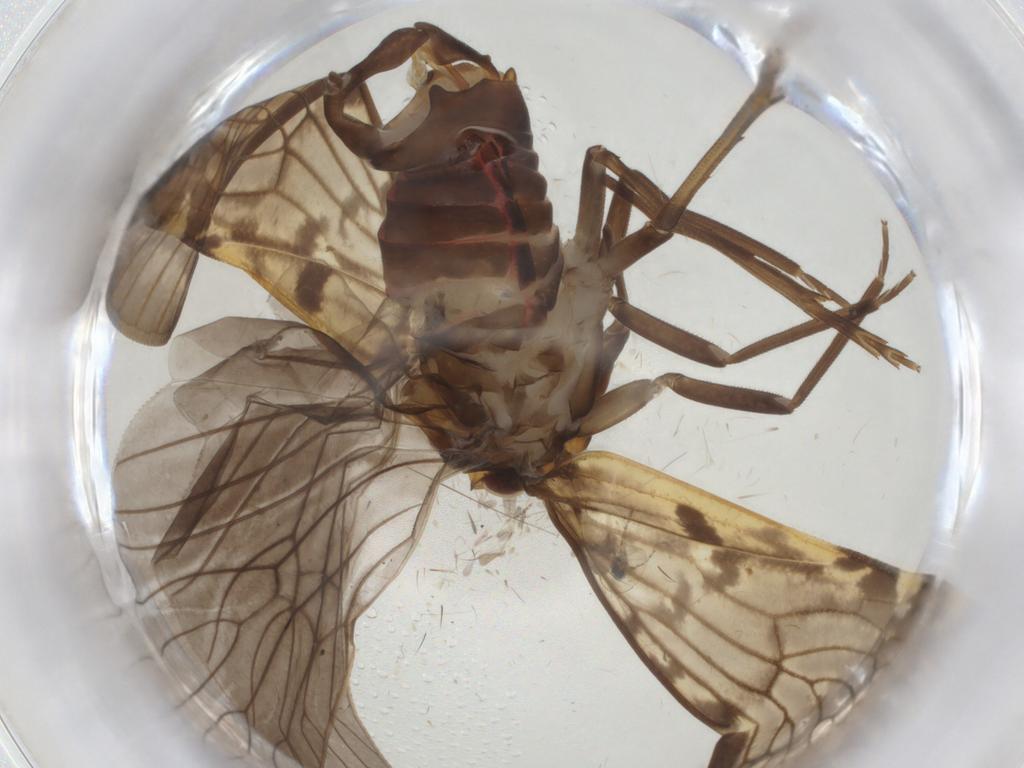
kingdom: Animalia
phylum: Arthropoda
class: Insecta
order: Hemiptera
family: Cixiidae
